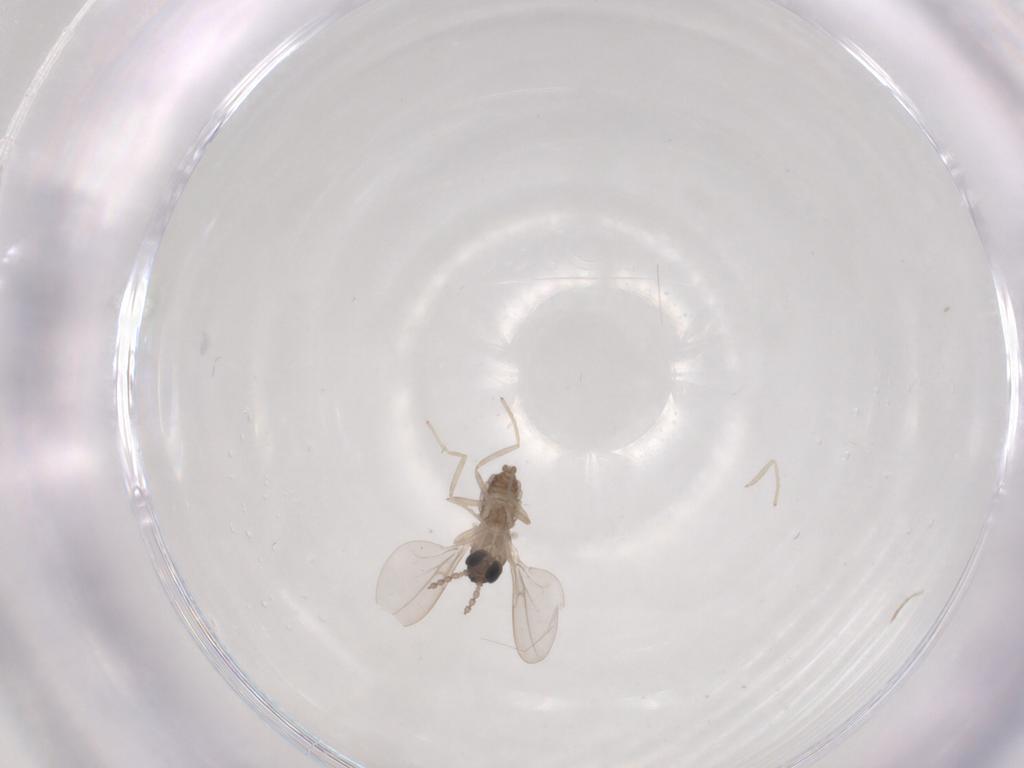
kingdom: Animalia
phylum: Arthropoda
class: Insecta
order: Diptera
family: Cecidomyiidae
